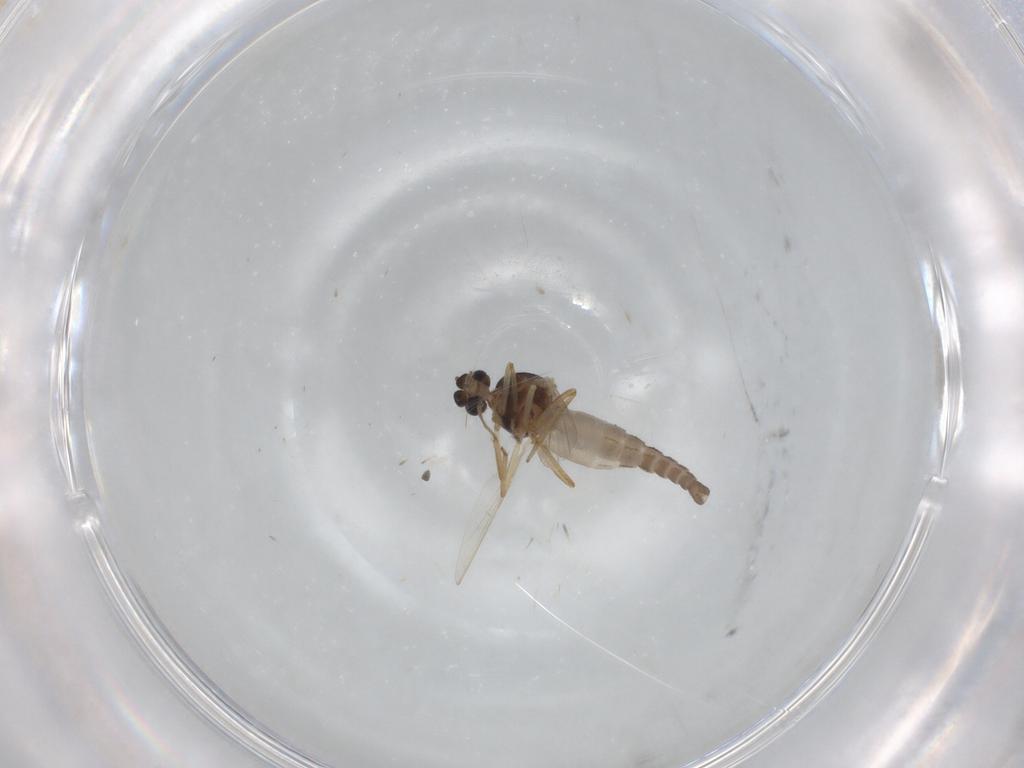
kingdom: Animalia
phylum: Arthropoda
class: Insecta
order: Diptera
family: Ceratopogonidae
